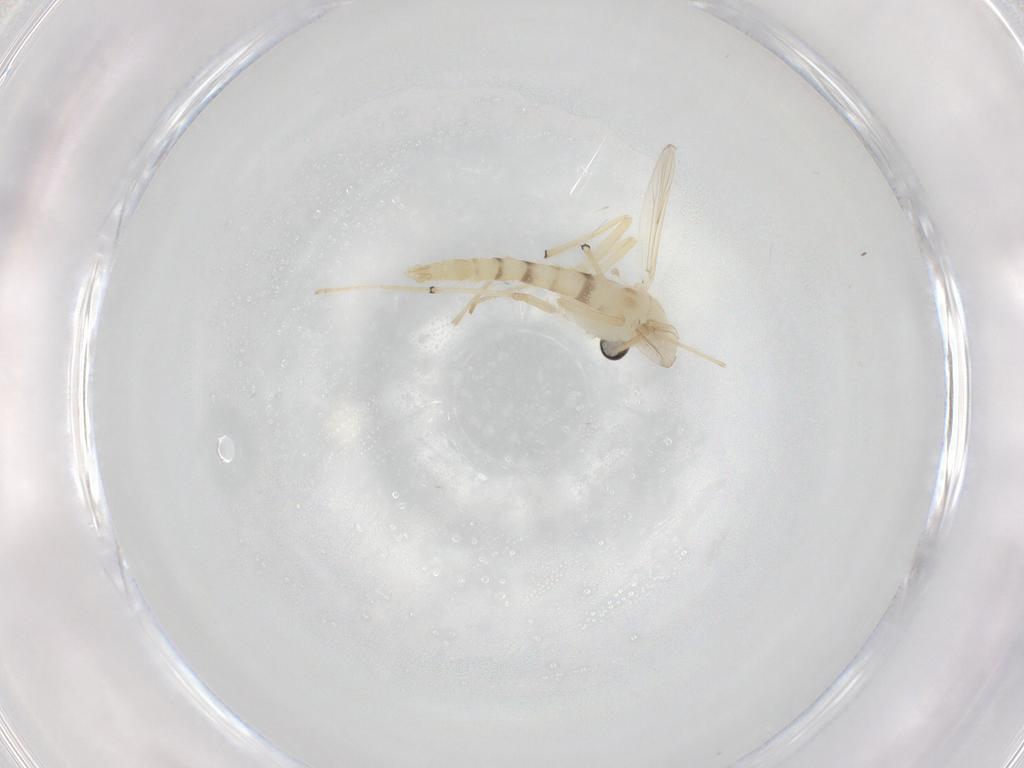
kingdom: Animalia
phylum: Arthropoda
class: Insecta
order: Diptera
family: Chironomidae
